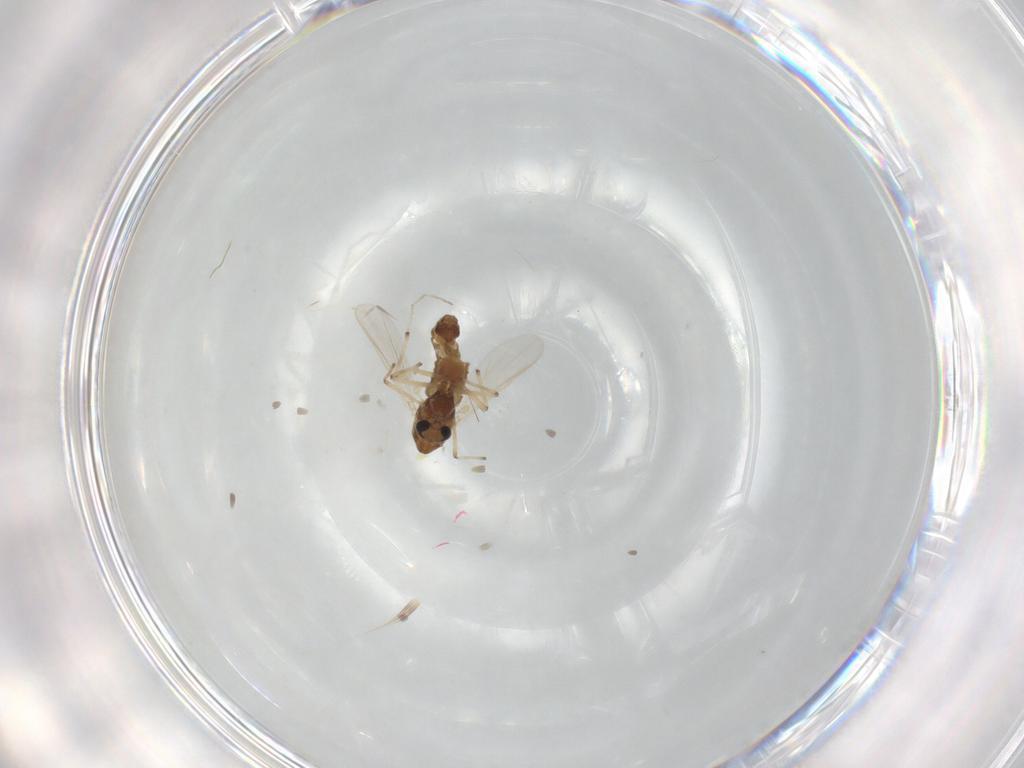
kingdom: Animalia
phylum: Arthropoda
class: Insecta
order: Diptera
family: Chironomidae
